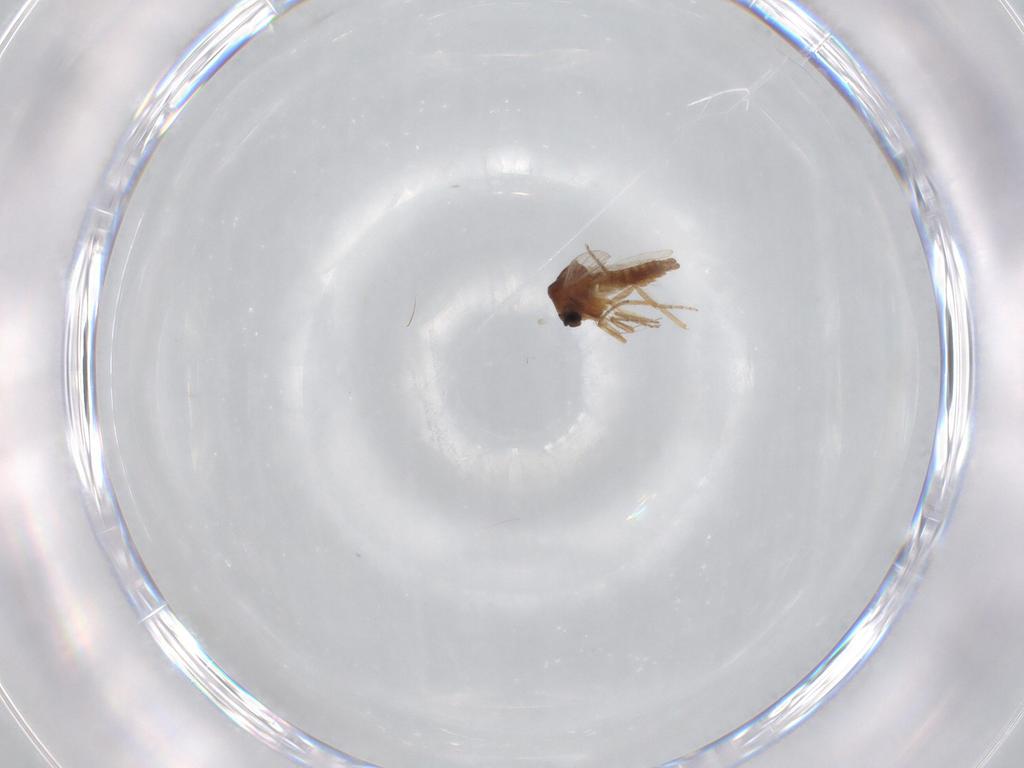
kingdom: Animalia
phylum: Arthropoda
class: Insecta
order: Diptera
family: Ceratopogonidae
